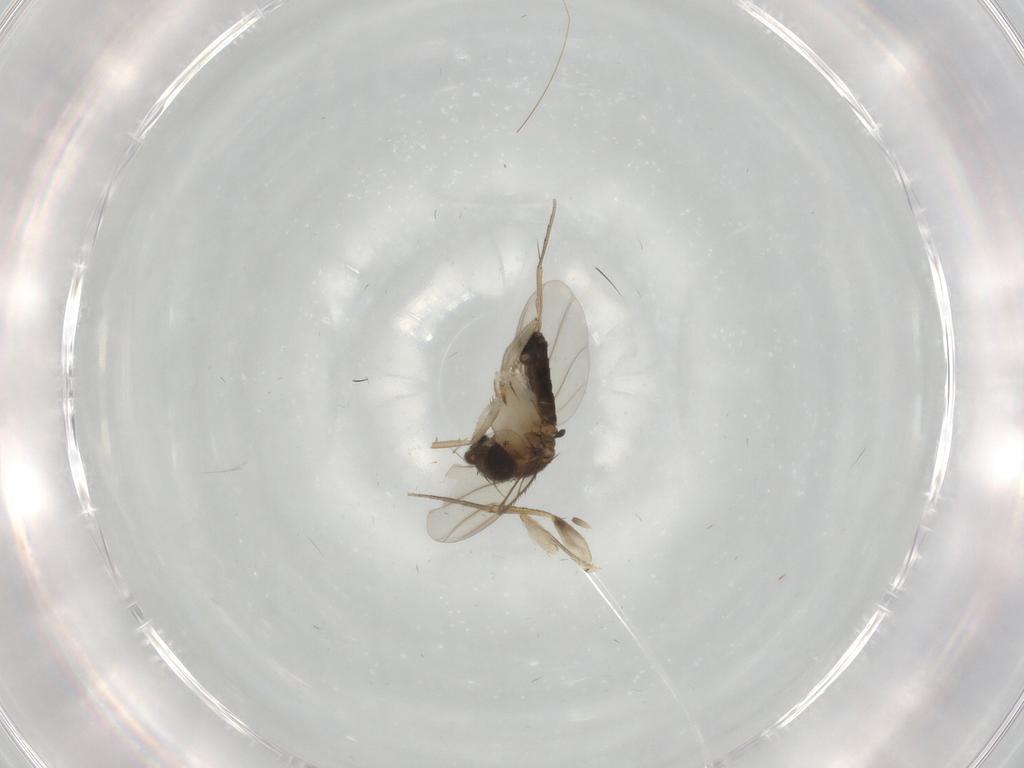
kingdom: Animalia
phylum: Arthropoda
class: Insecta
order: Diptera
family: Phoridae
